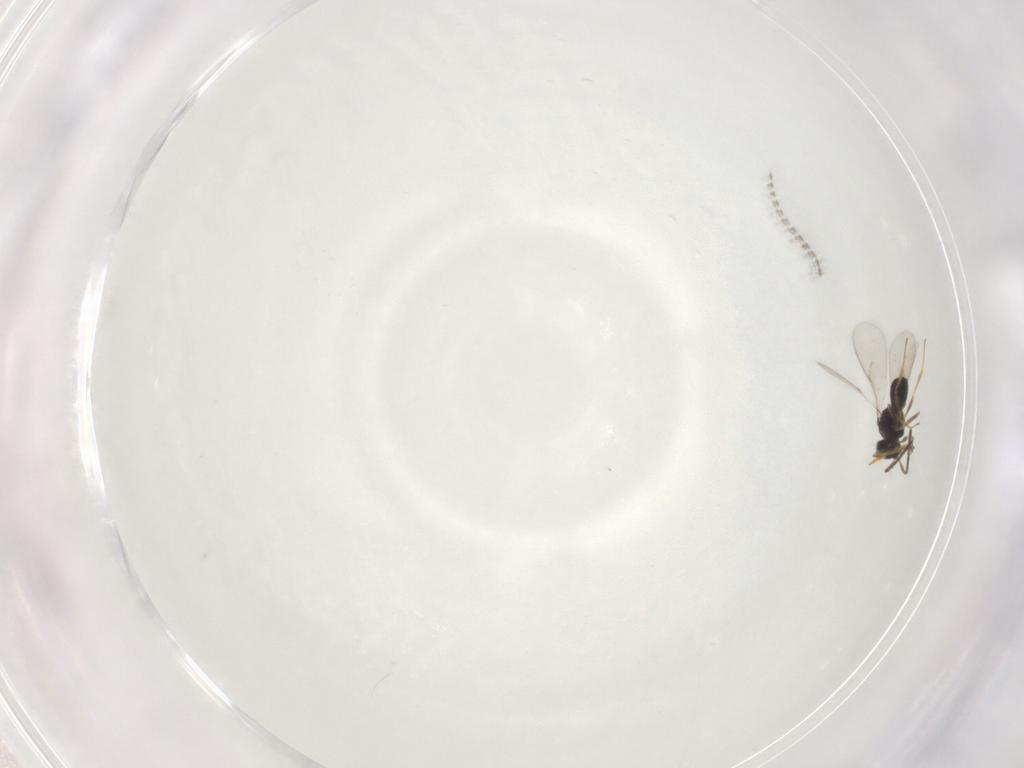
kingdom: Animalia
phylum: Arthropoda
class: Insecta
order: Hymenoptera
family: Scelionidae
